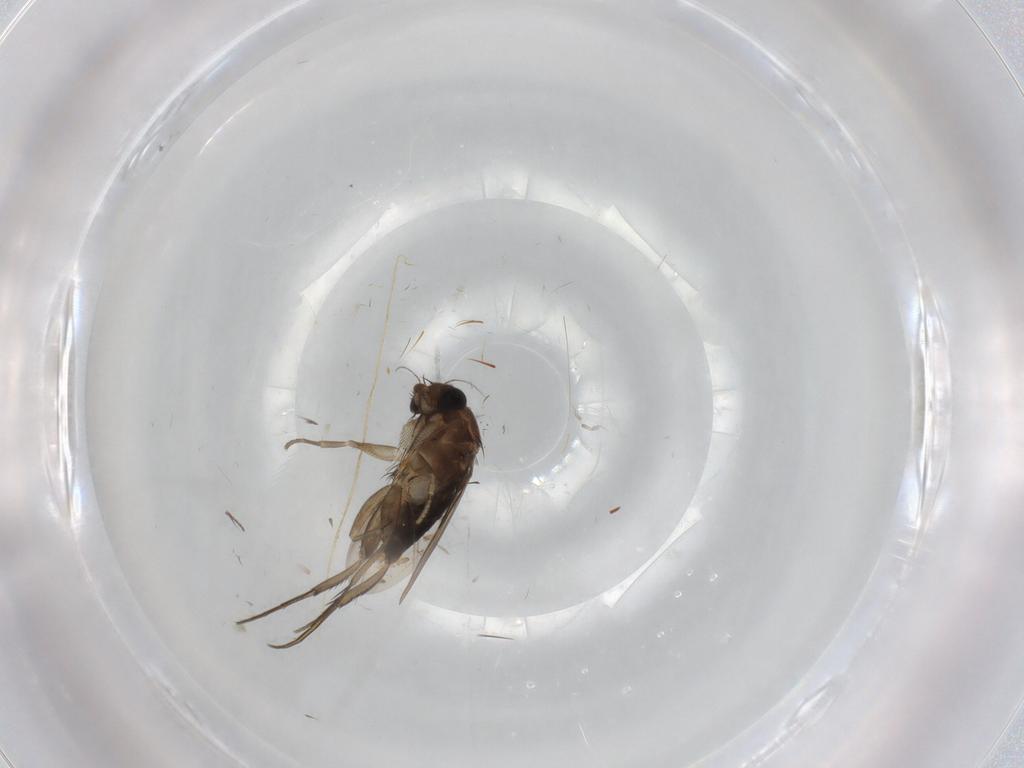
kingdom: Animalia
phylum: Arthropoda
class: Insecta
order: Diptera
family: Phoridae
